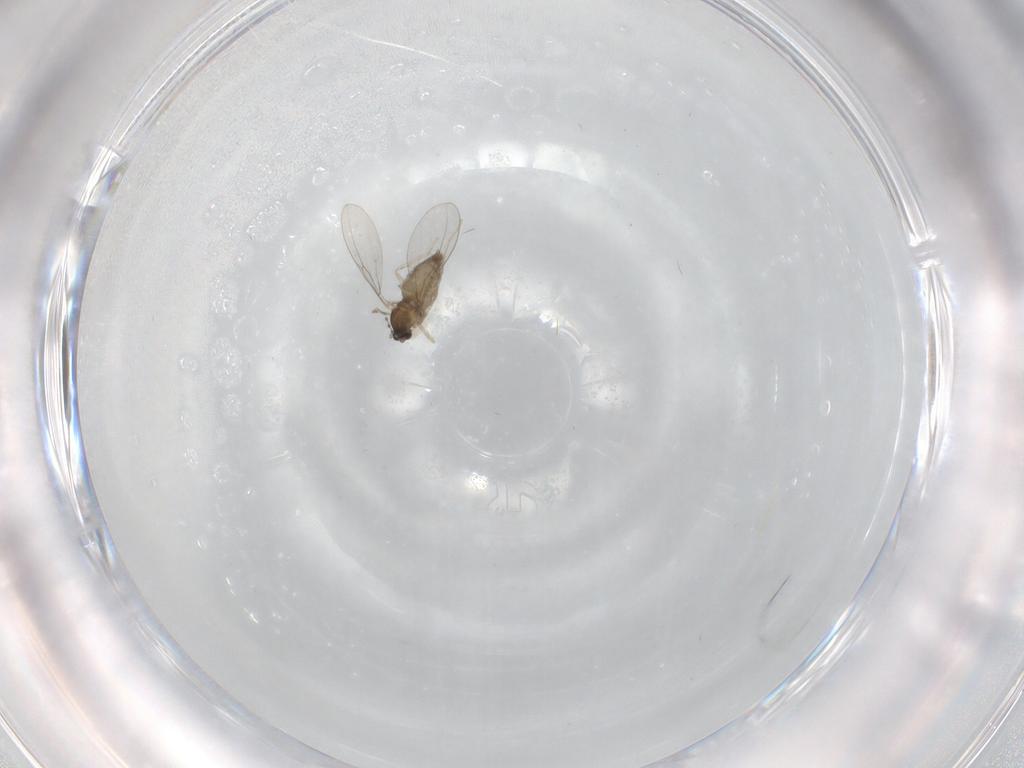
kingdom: Animalia
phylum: Arthropoda
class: Insecta
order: Diptera
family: Cecidomyiidae
